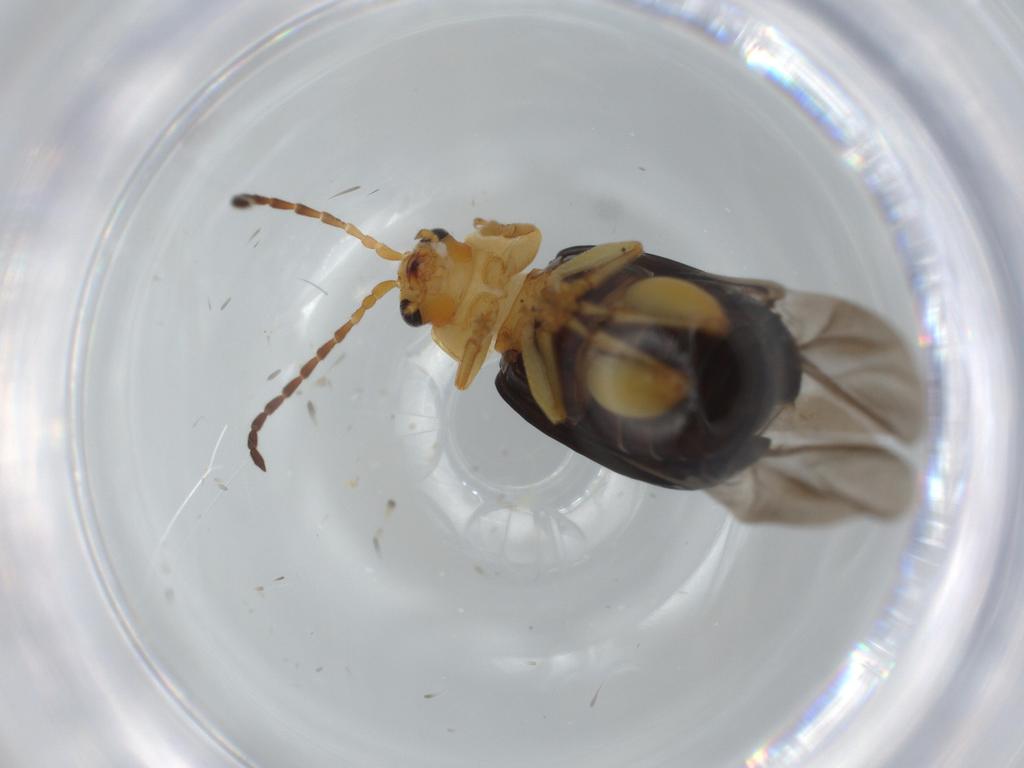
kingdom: Animalia
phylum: Arthropoda
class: Insecta
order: Coleoptera
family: Chrysomelidae
